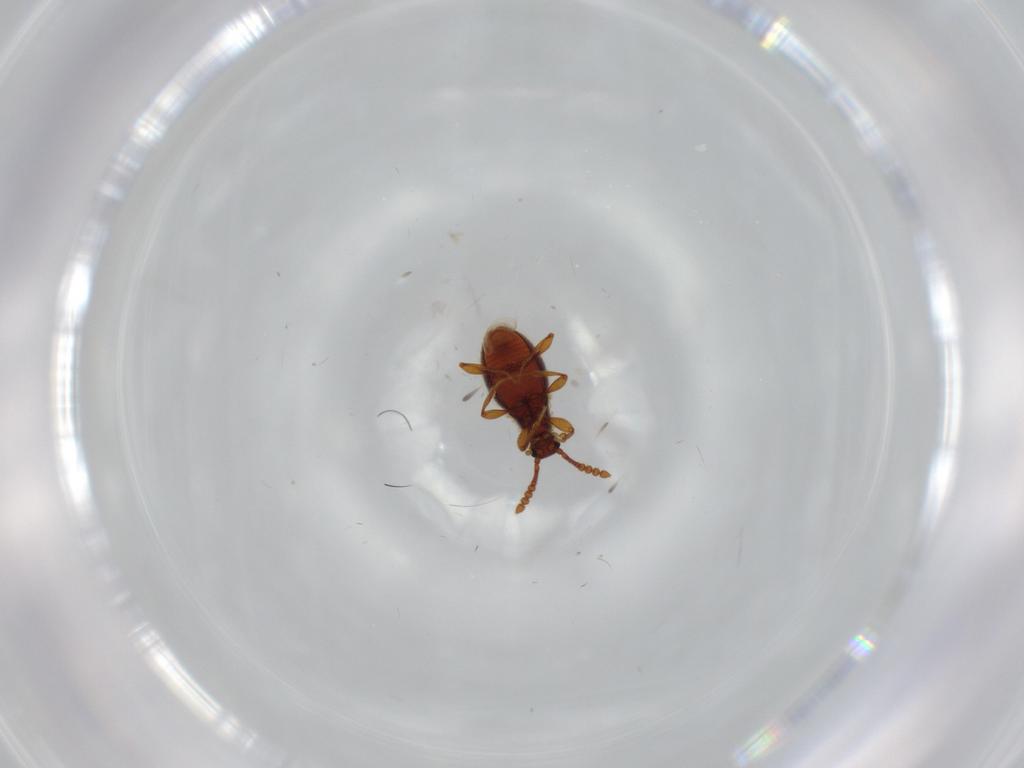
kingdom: Animalia
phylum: Arthropoda
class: Insecta
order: Coleoptera
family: Staphylinidae
